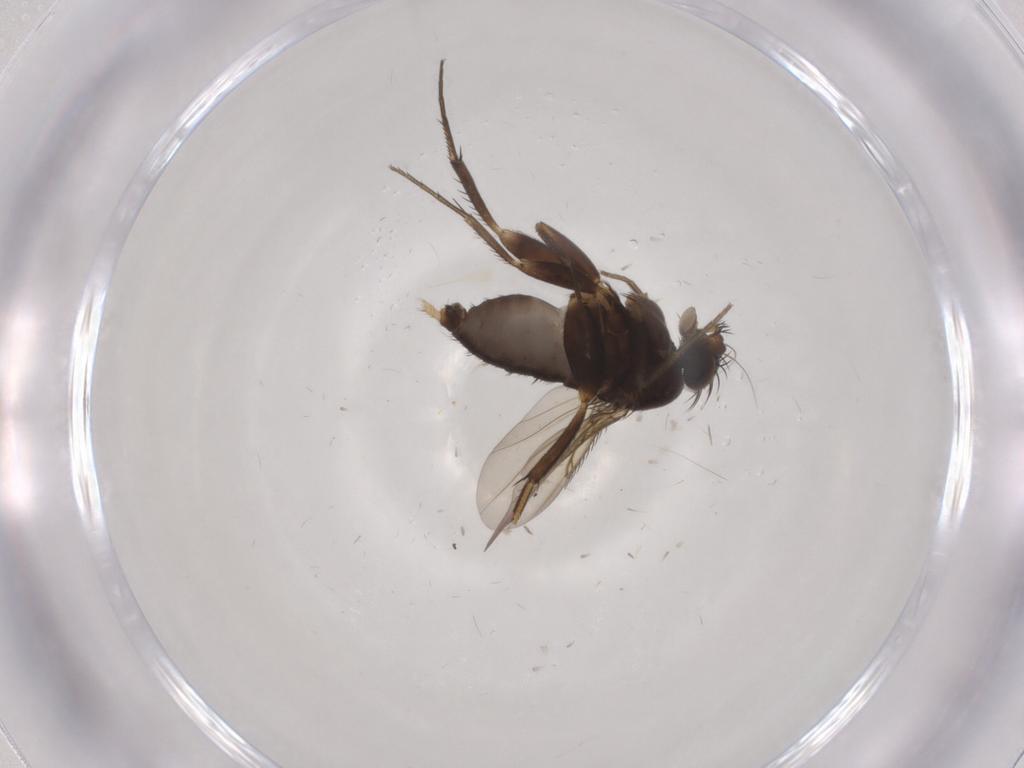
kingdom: Animalia
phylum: Arthropoda
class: Insecta
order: Diptera
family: Phoridae
